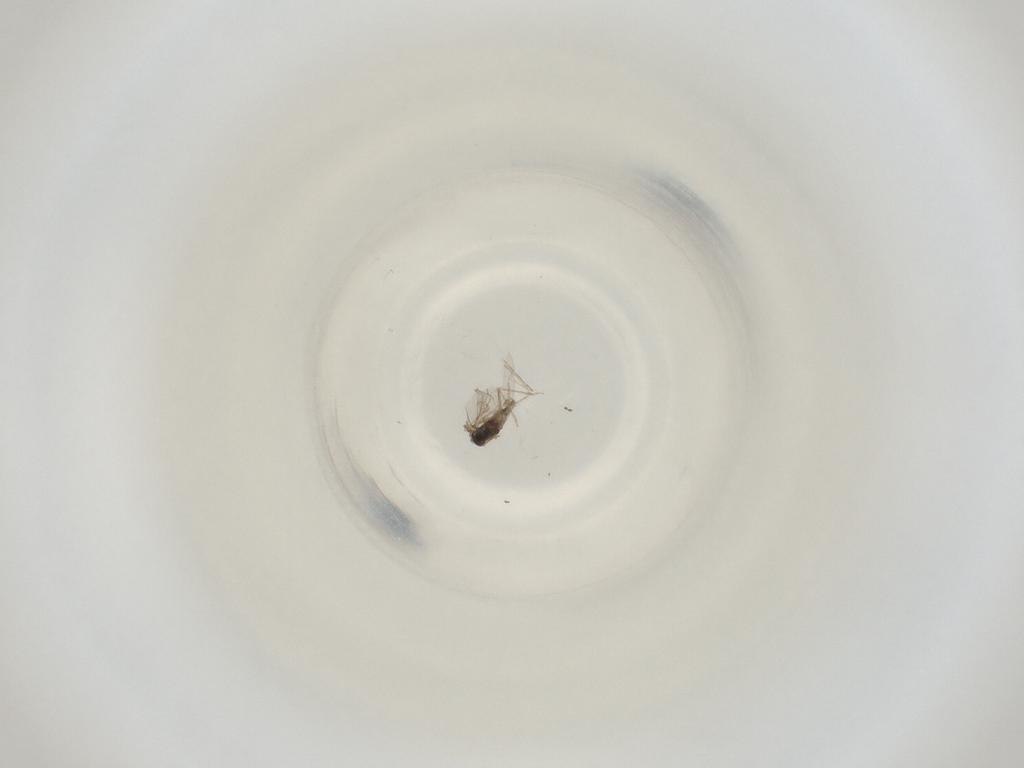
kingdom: Animalia
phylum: Arthropoda
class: Insecta
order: Diptera
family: Cecidomyiidae
